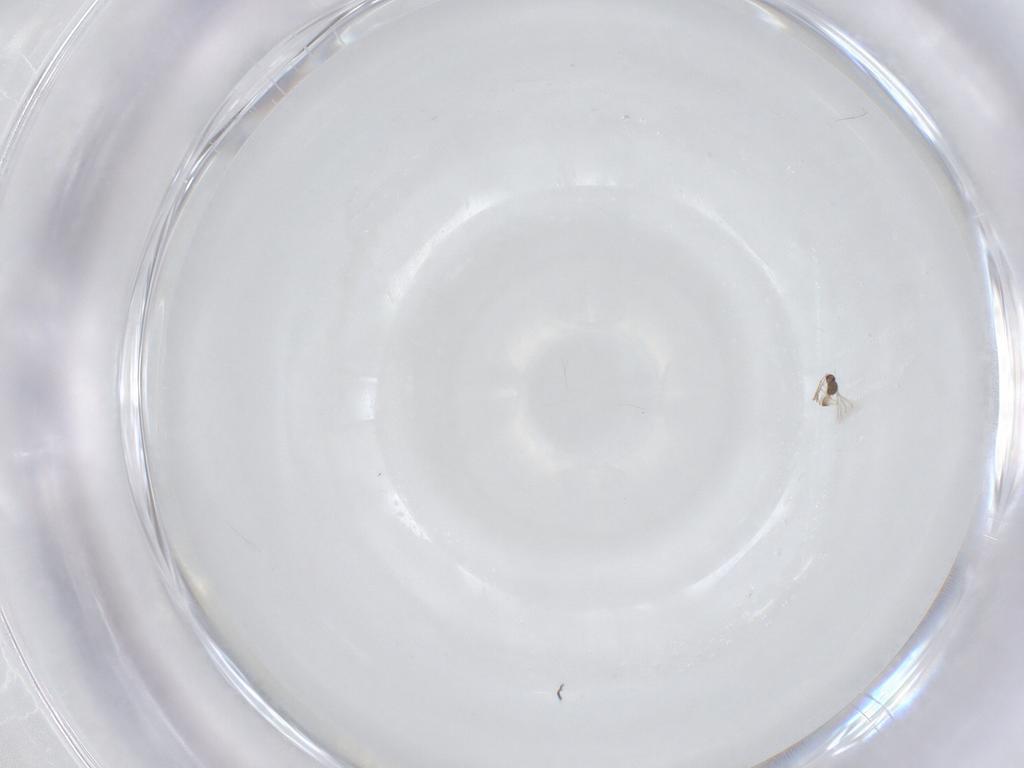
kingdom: Animalia
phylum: Arthropoda
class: Insecta
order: Hymenoptera
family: Formicidae
